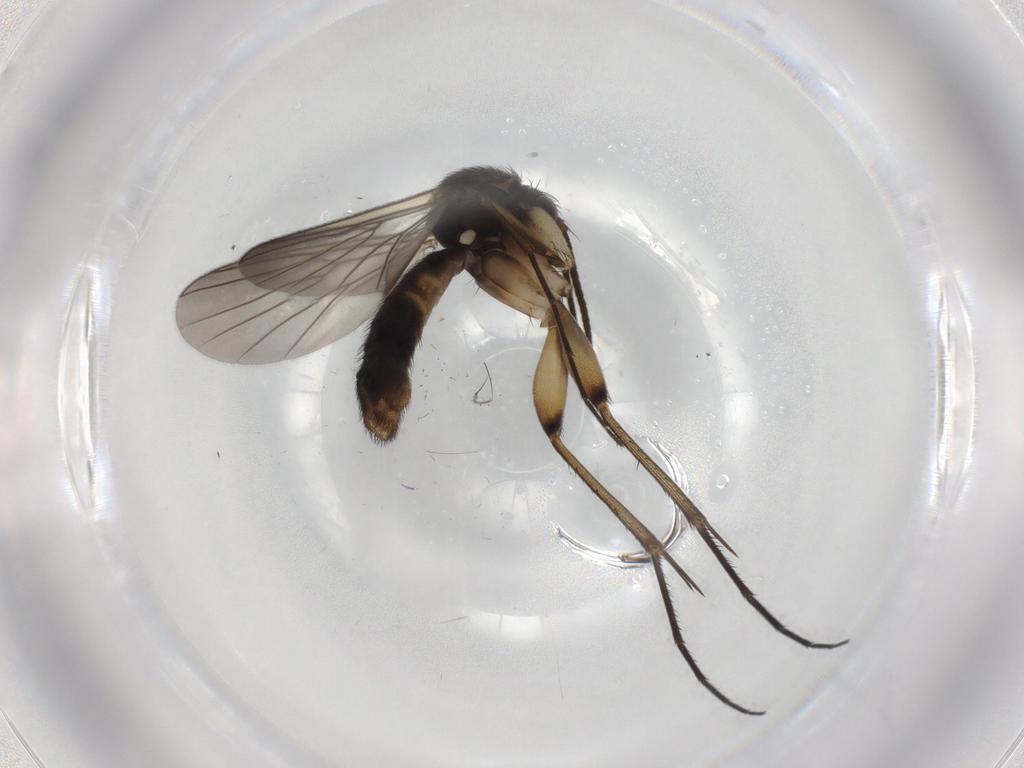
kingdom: Animalia
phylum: Arthropoda
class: Insecta
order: Diptera
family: Mycetophilidae
